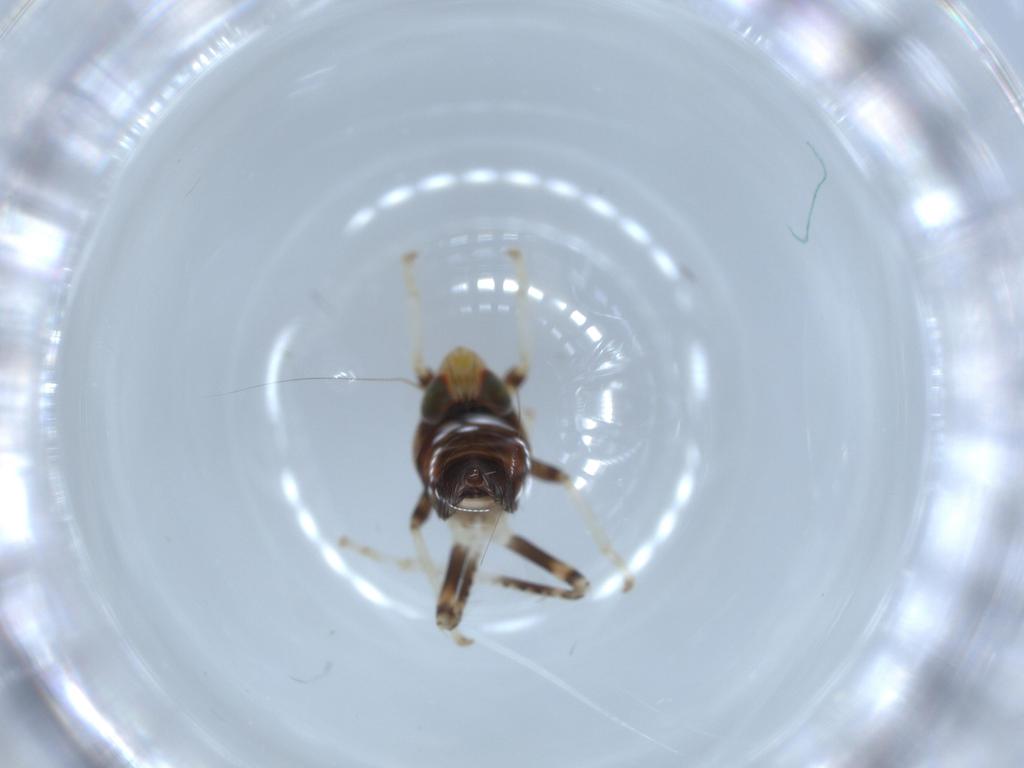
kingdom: Animalia
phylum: Arthropoda
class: Insecta
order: Hemiptera
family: Cicadellidae
